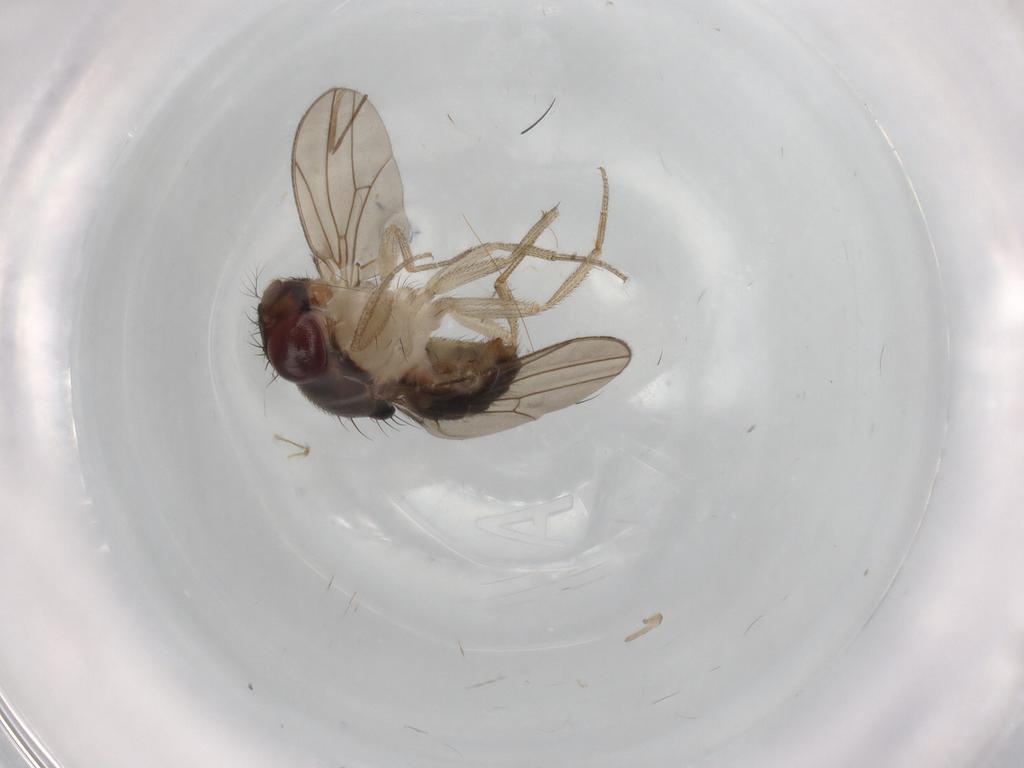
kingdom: Animalia
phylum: Arthropoda
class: Insecta
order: Diptera
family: Drosophilidae
